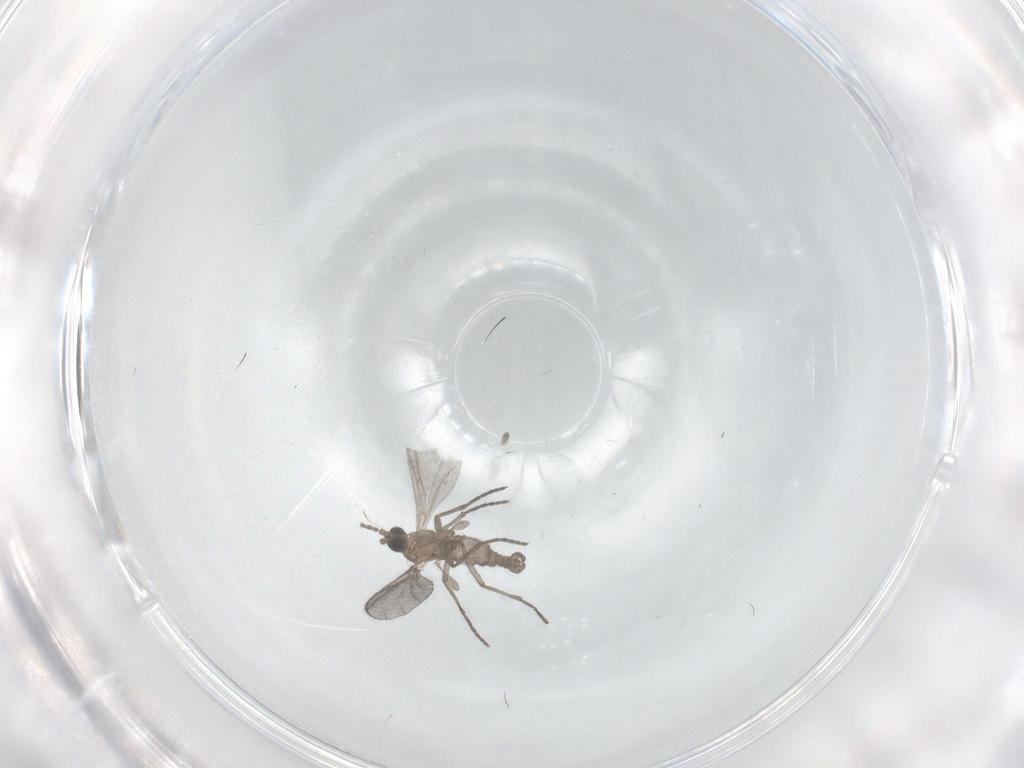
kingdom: Animalia
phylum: Arthropoda
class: Insecta
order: Diptera
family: Sciaridae
